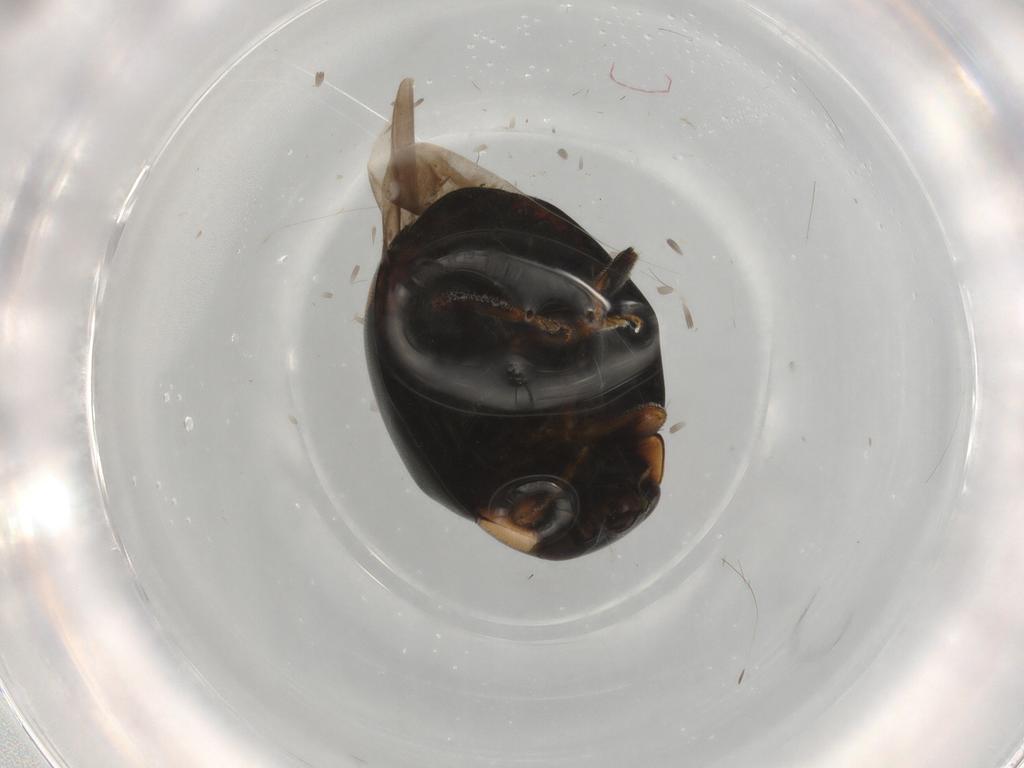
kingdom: Animalia
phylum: Arthropoda
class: Insecta
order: Coleoptera
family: Coccinellidae
